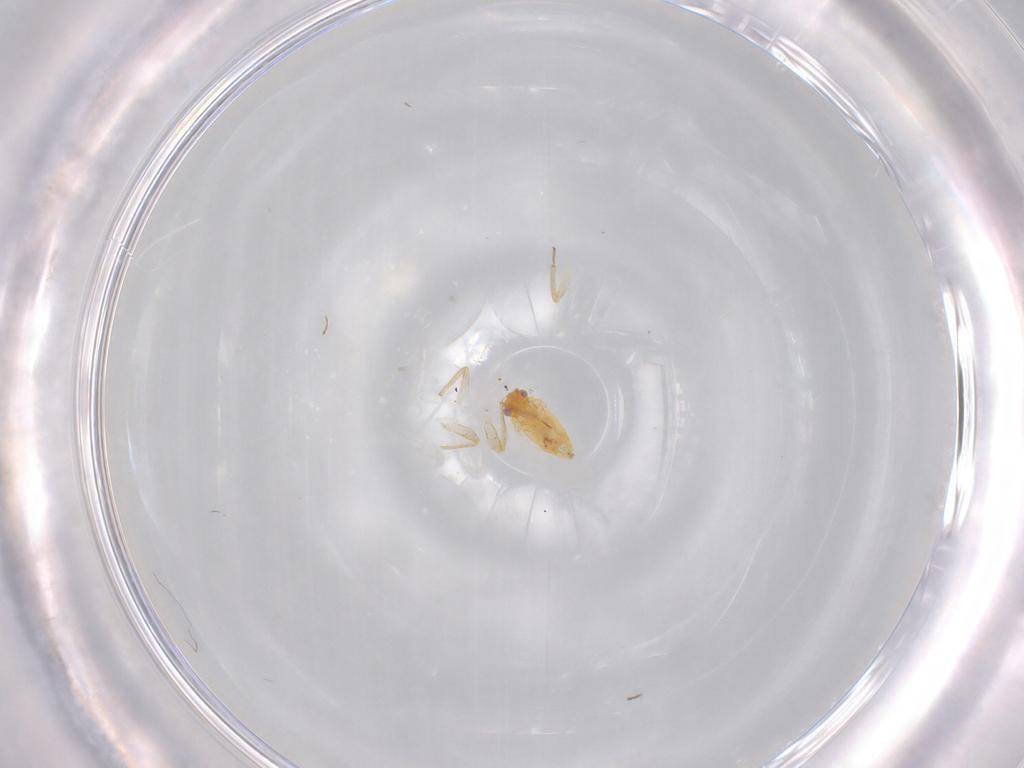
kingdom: Animalia
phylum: Arthropoda
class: Insecta
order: Hemiptera
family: Miridae
